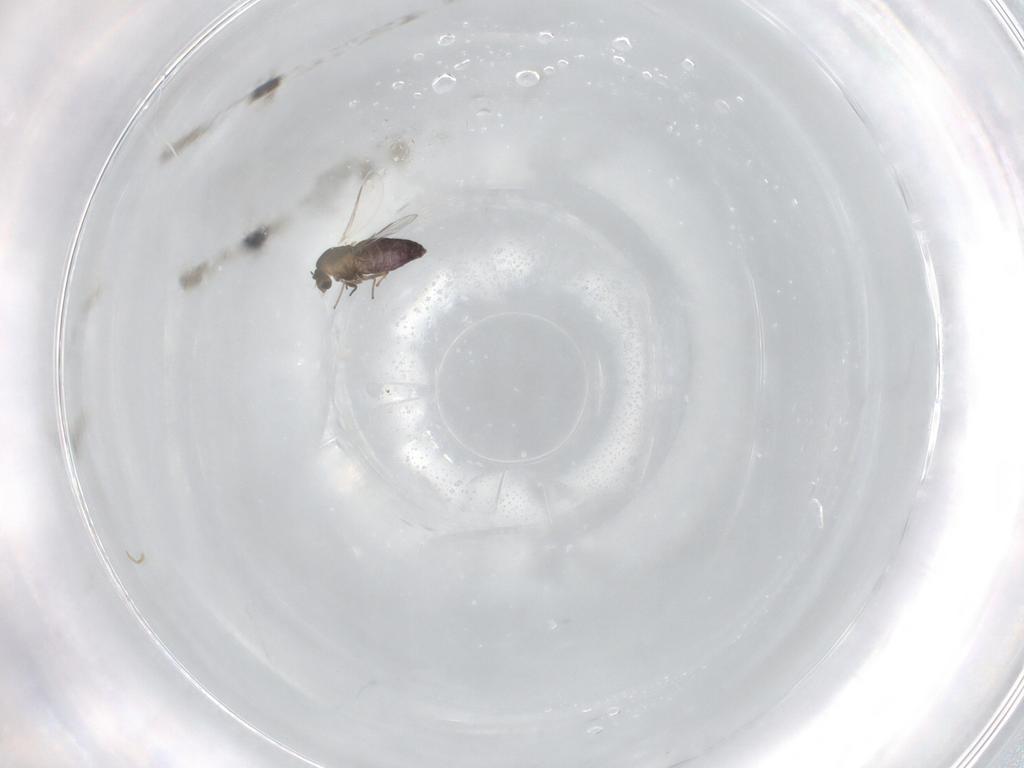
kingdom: Animalia
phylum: Arthropoda
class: Insecta
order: Diptera
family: Chironomidae
